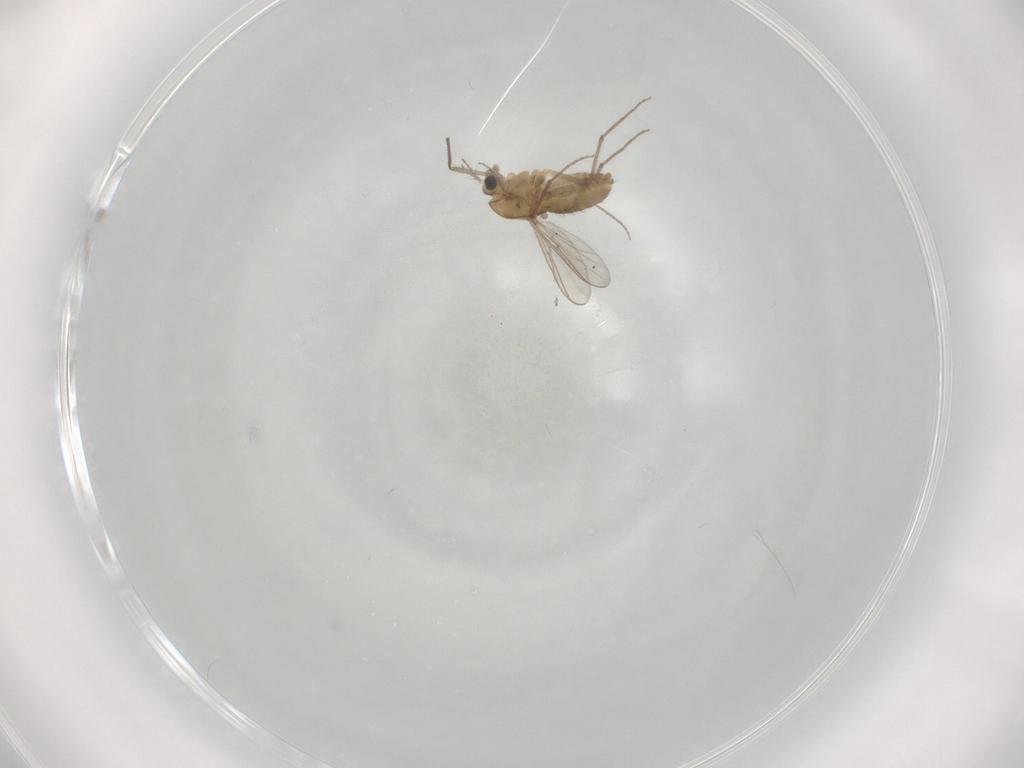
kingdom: Animalia
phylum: Arthropoda
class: Insecta
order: Diptera
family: Chironomidae
